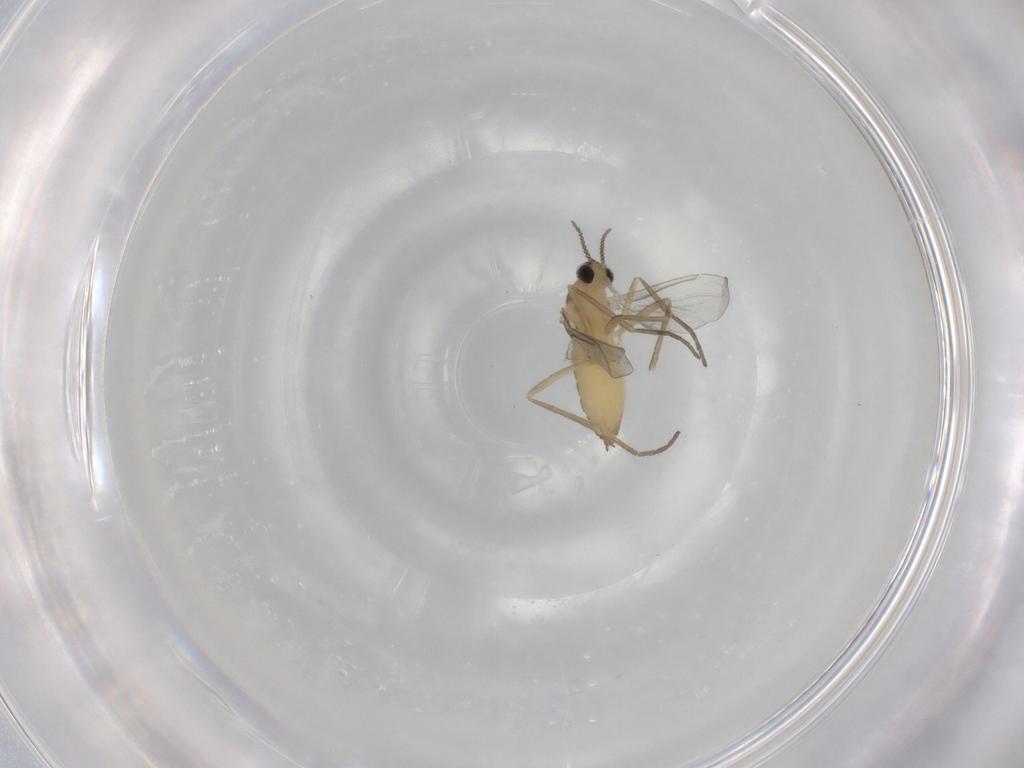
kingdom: Animalia
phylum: Arthropoda
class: Insecta
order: Diptera
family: Cecidomyiidae
